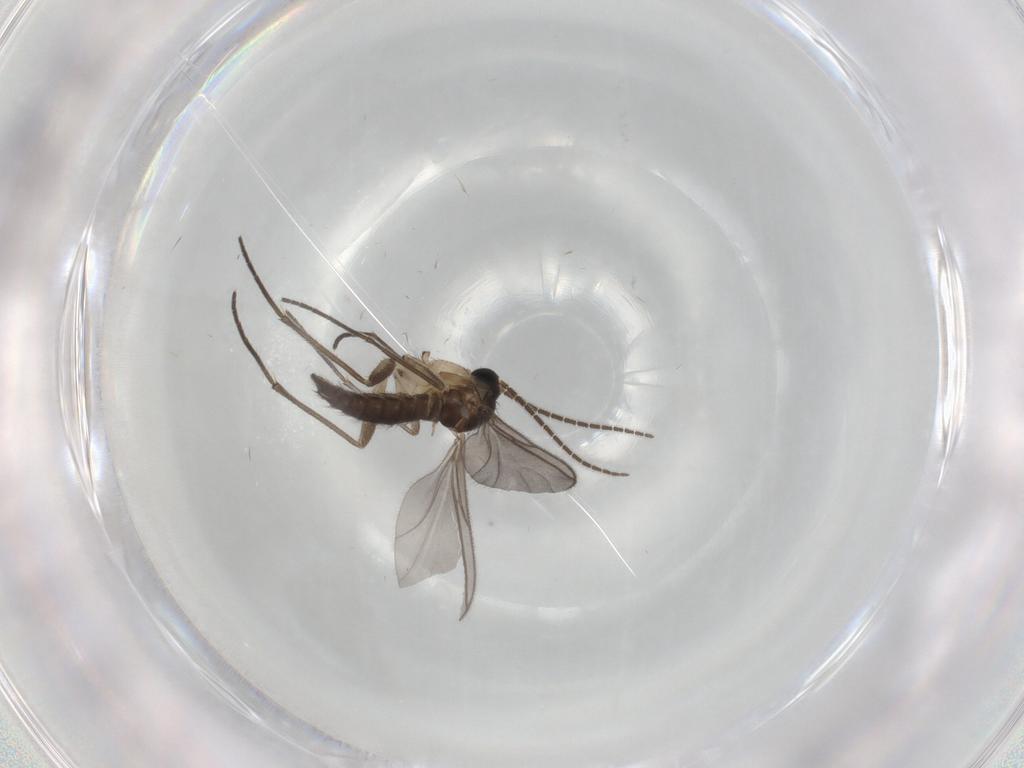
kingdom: Animalia
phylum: Arthropoda
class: Insecta
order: Diptera
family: Sciaridae
